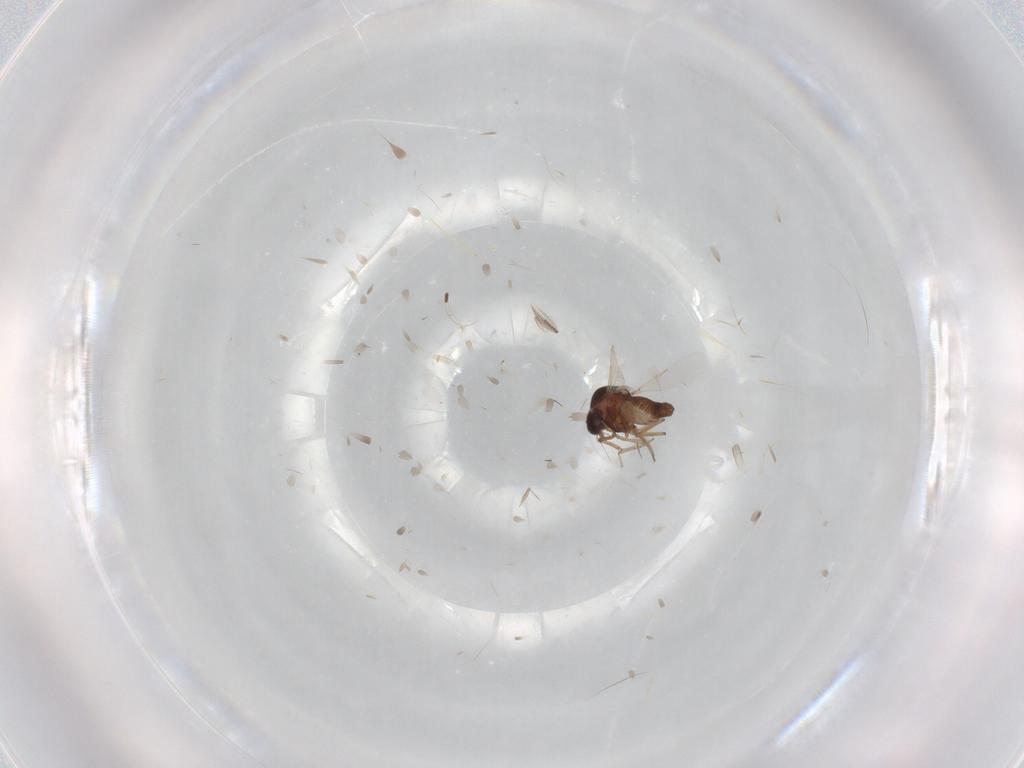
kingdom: Animalia
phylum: Arthropoda
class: Insecta
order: Diptera
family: Ceratopogonidae
